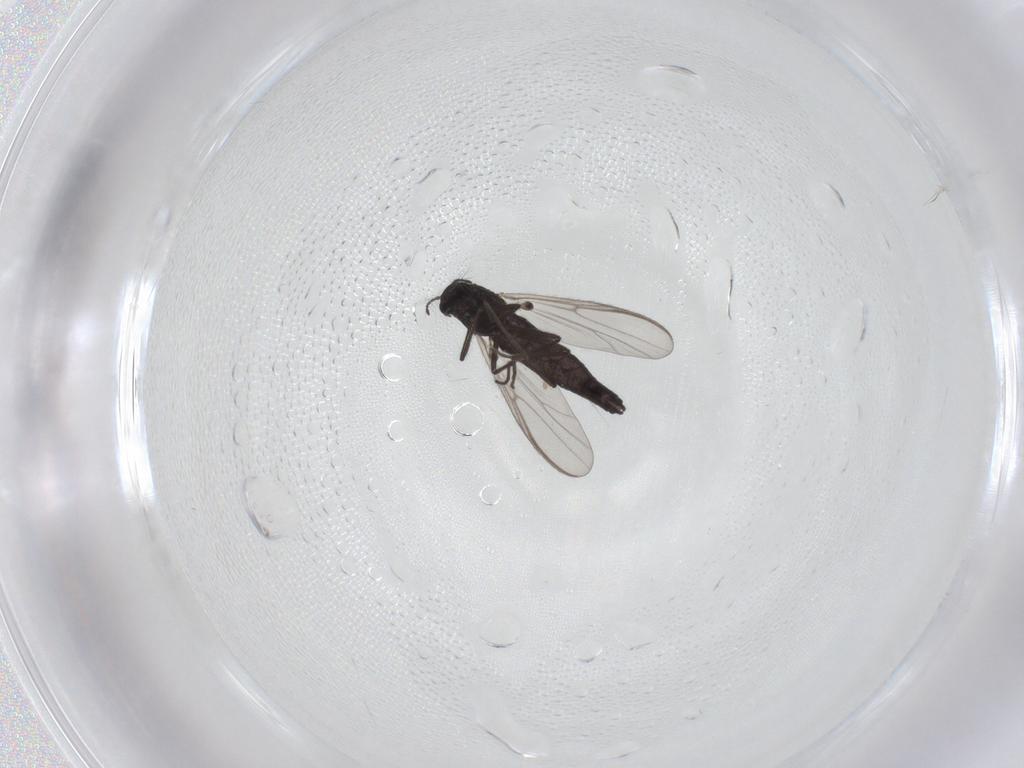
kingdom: Animalia
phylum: Arthropoda
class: Insecta
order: Diptera
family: Chironomidae
